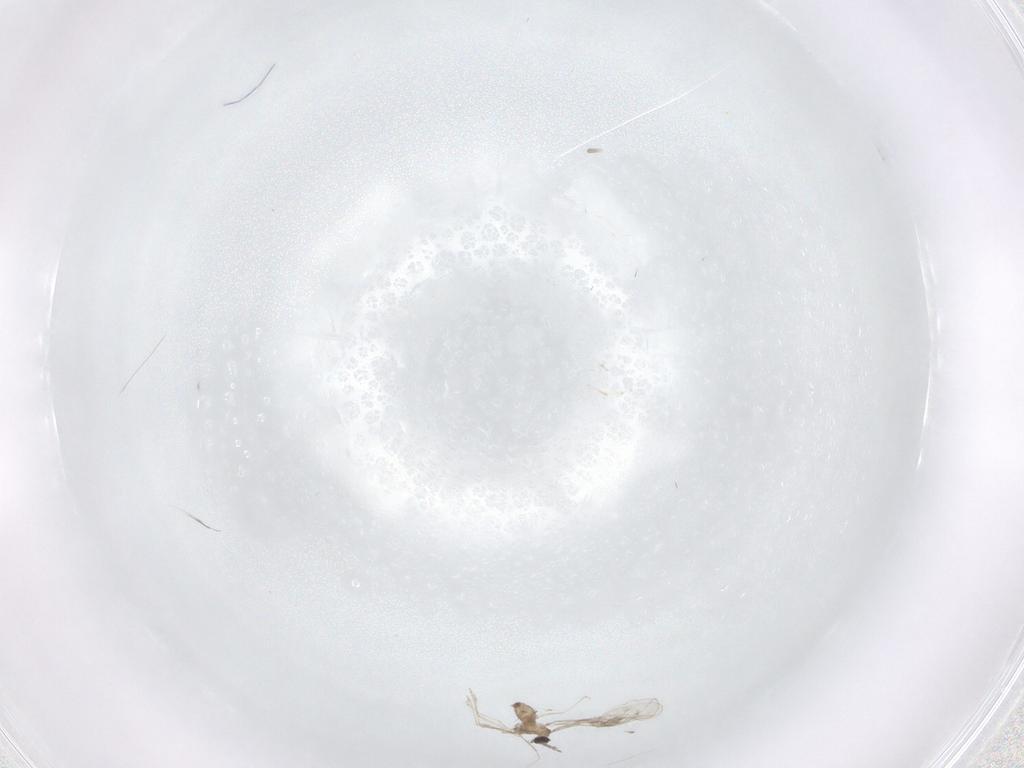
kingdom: Animalia
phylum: Arthropoda
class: Insecta
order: Diptera
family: Cecidomyiidae
